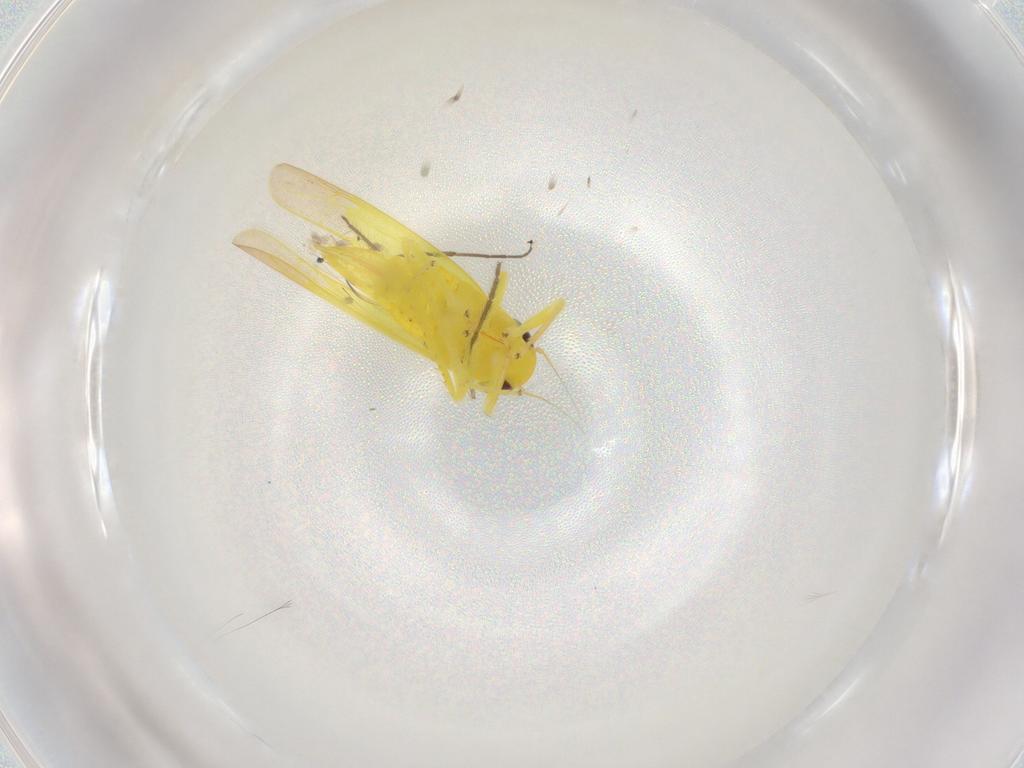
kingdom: Animalia
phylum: Arthropoda
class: Insecta
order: Hemiptera
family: Cicadellidae
